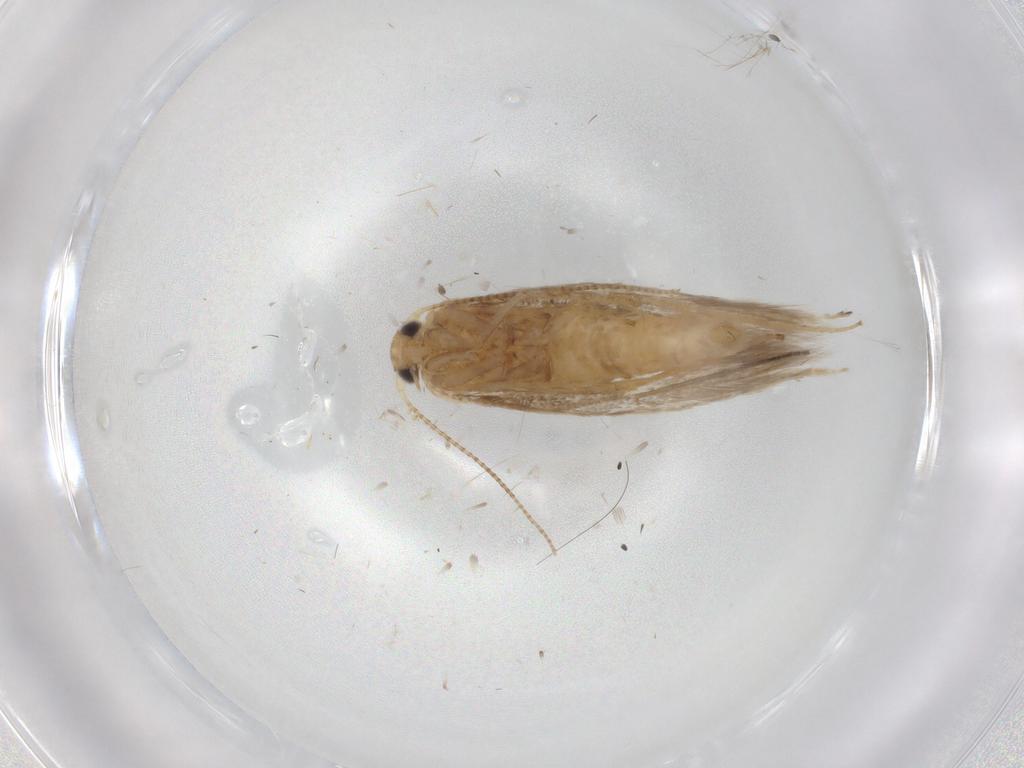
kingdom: Animalia
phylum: Arthropoda
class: Insecta
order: Lepidoptera
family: Gracillariidae
